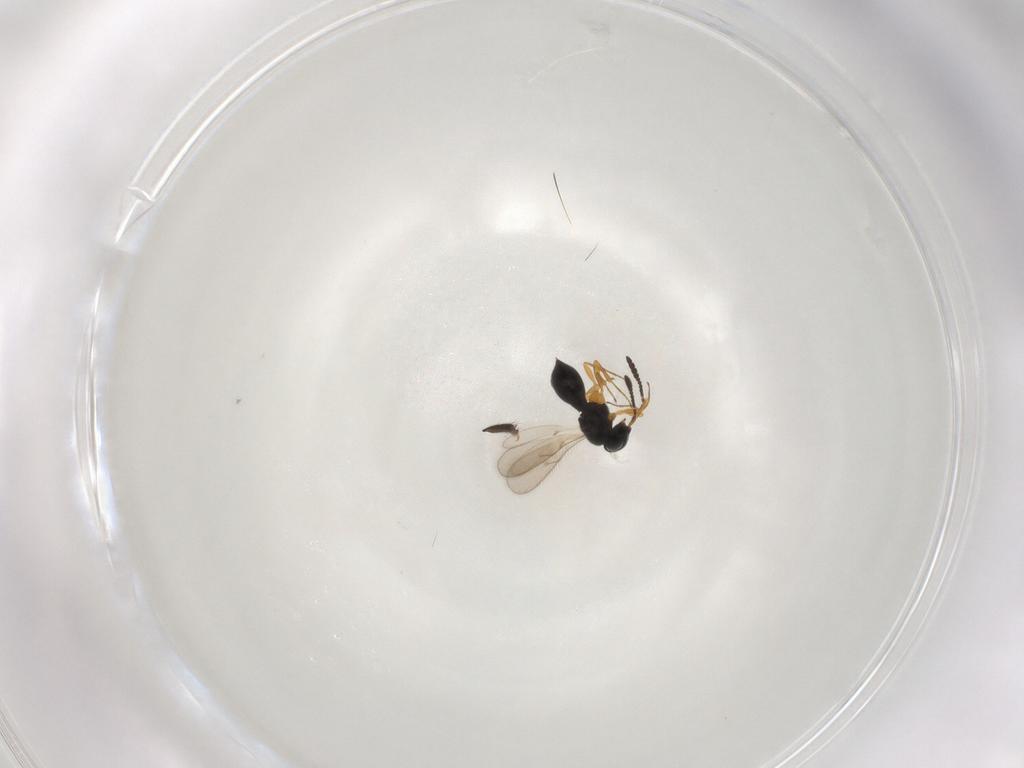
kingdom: Animalia
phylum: Arthropoda
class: Insecta
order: Hymenoptera
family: Scelionidae
